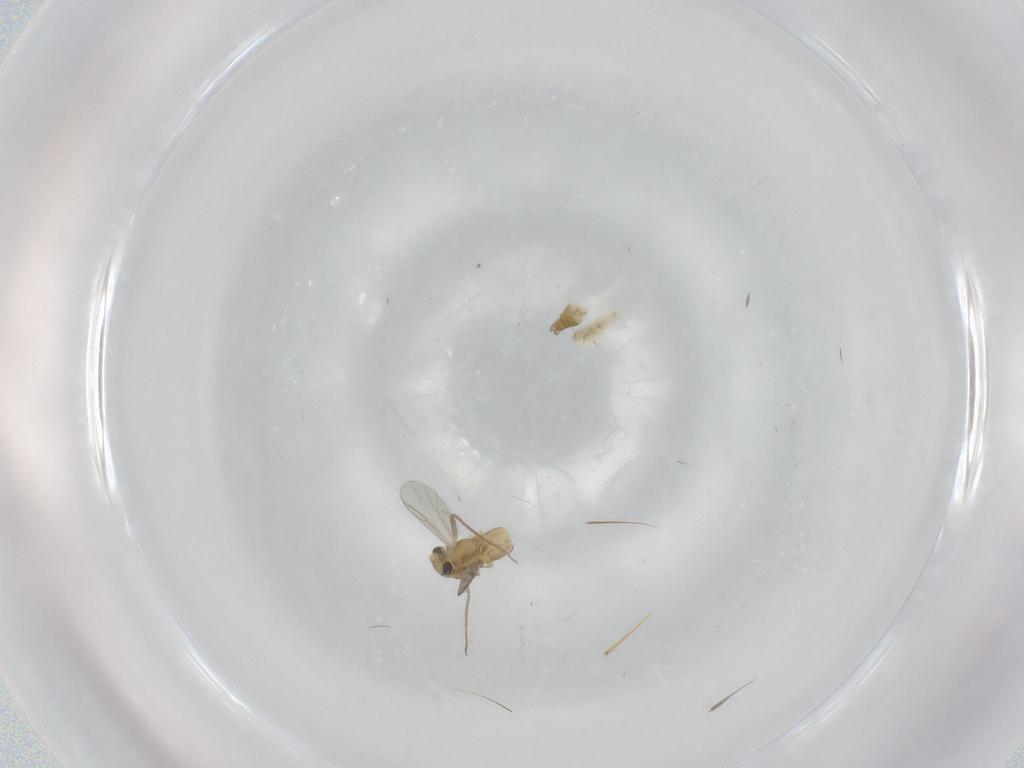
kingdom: Animalia
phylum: Arthropoda
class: Insecta
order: Diptera
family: Chironomidae
